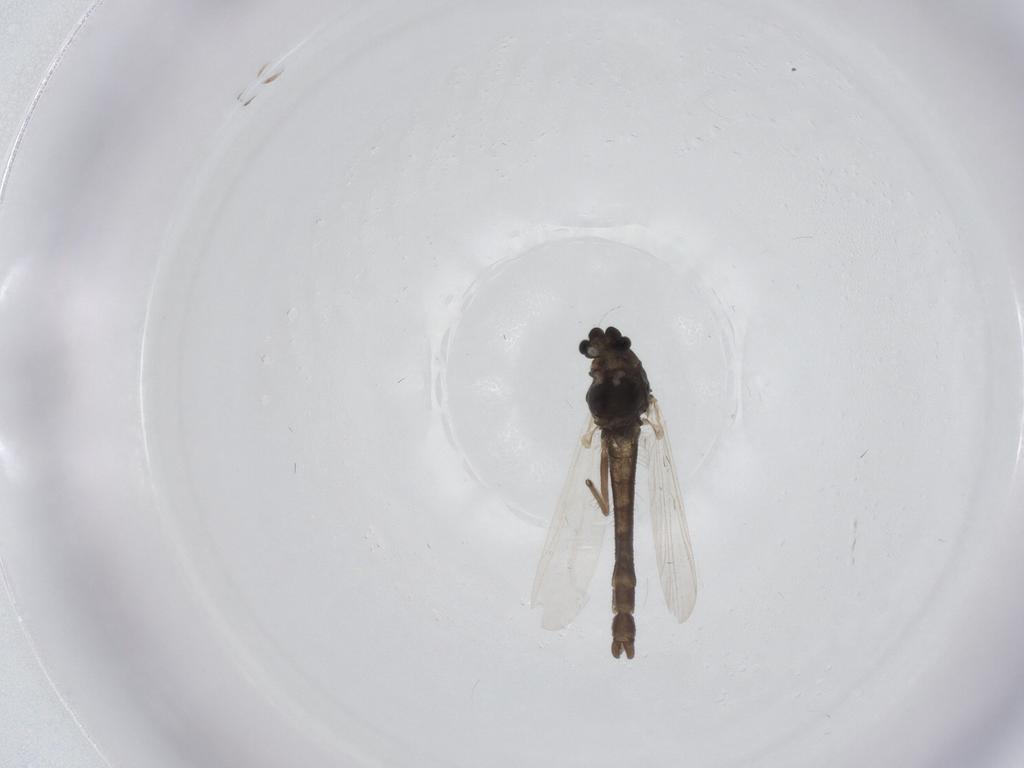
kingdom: Animalia
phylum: Arthropoda
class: Insecta
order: Diptera
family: Chironomidae
